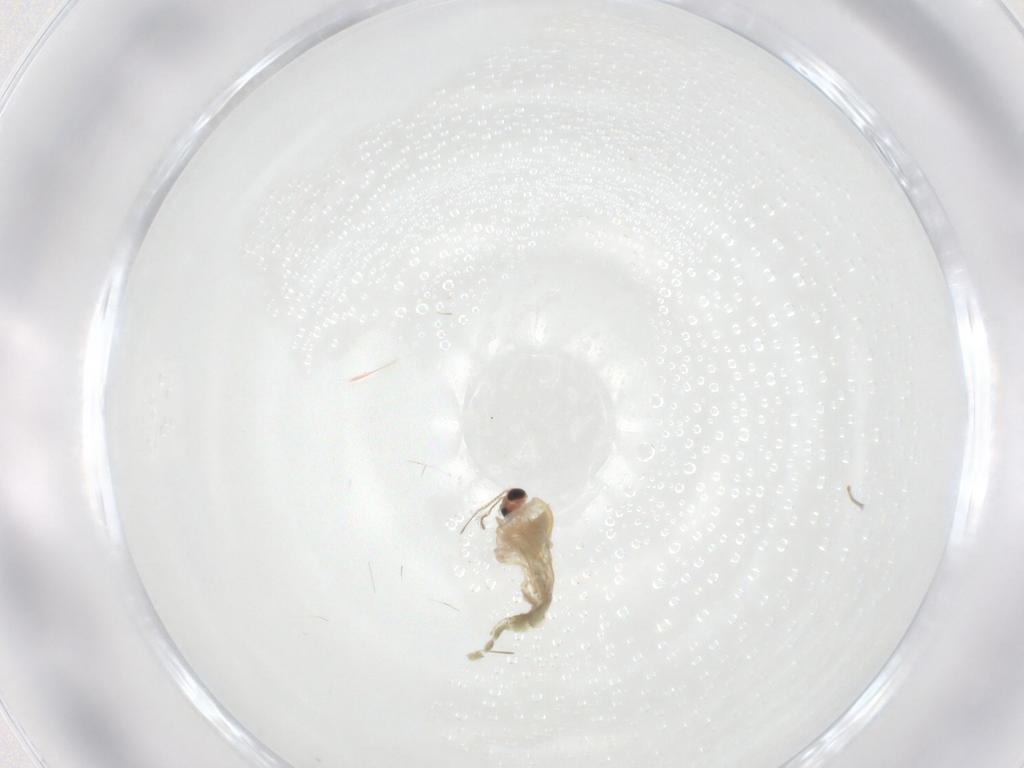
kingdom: Animalia
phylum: Arthropoda
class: Insecta
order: Diptera
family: Chironomidae
